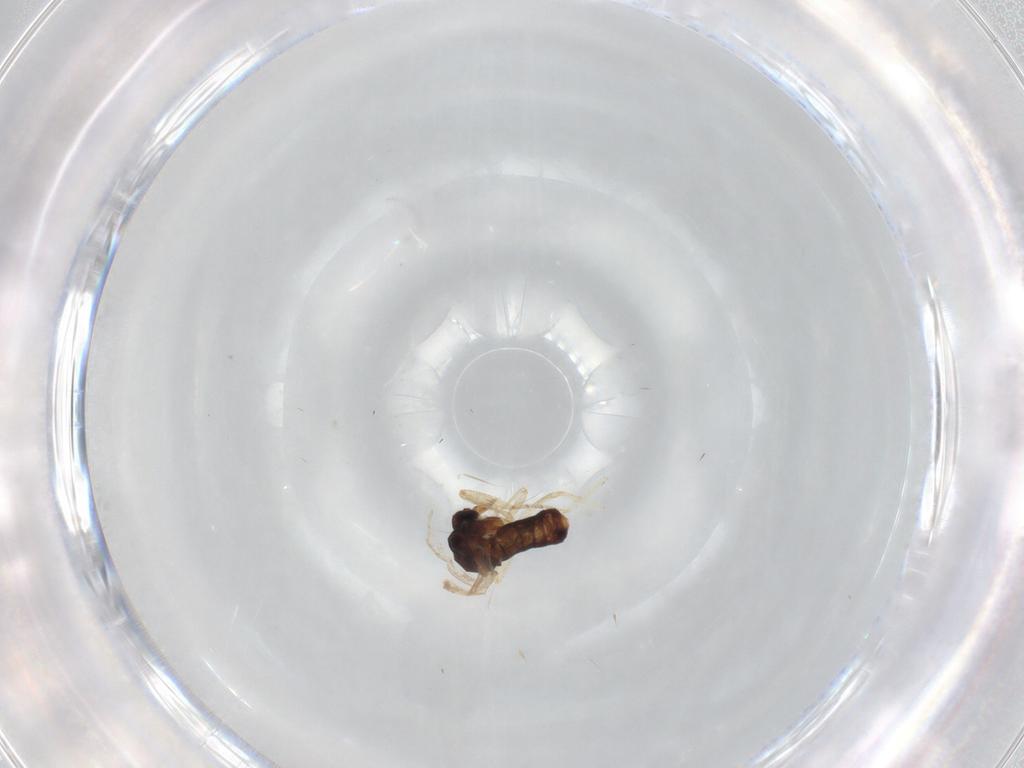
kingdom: Animalia
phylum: Arthropoda
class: Insecta
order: Diptera
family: Ceratopogonidae
